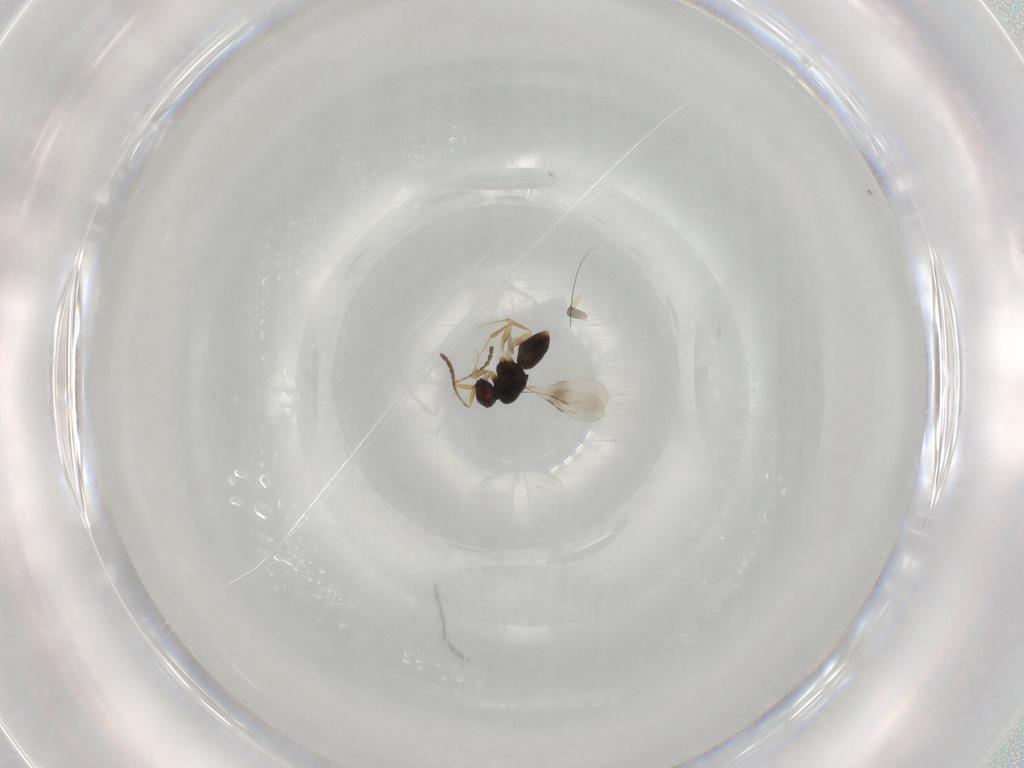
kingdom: Animalia
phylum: Arthropoda
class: Insecta
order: Hymenoptera
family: Braconidae
